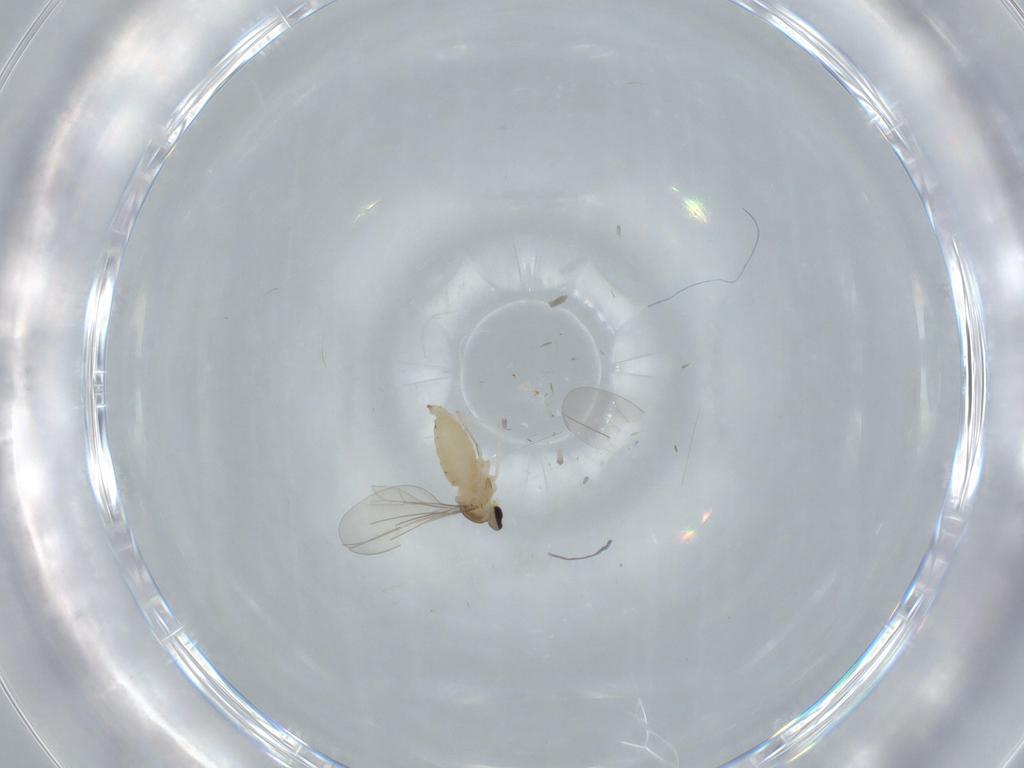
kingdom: Animalia
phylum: Arthropoda
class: Insecta
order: Diptera
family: Cecidomyiidae
